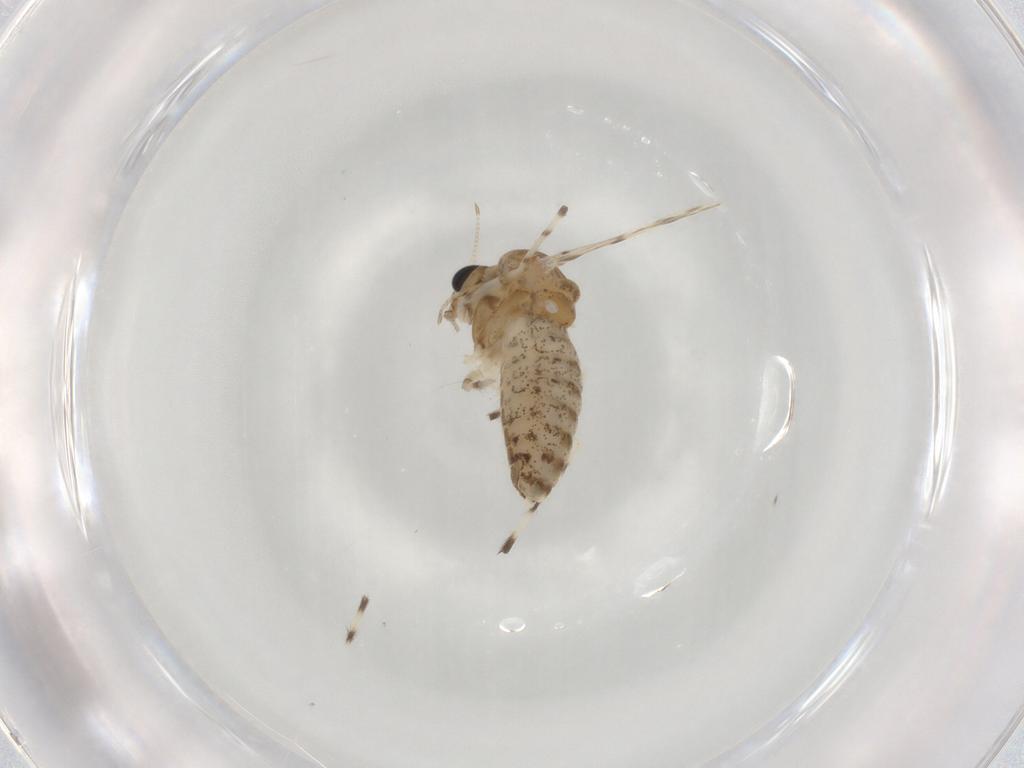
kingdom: Animalia
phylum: Arthropoda
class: Insecta
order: Diptera
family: Chironomidae
